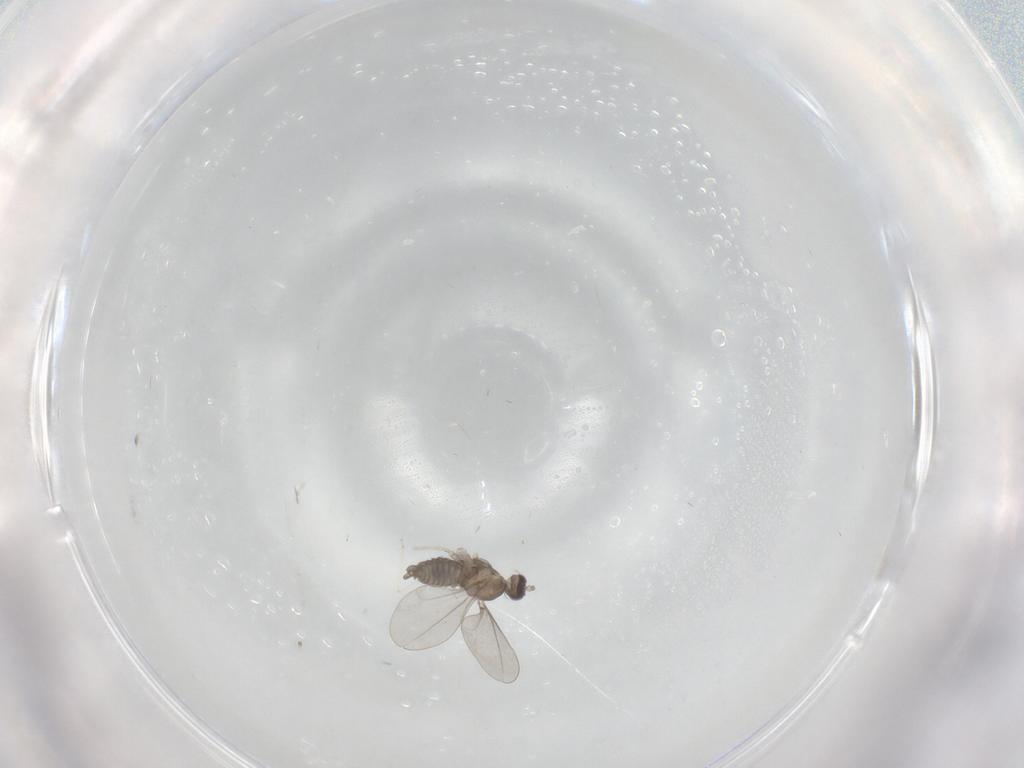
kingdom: Animalia
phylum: Arthropoda
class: Insecta
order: Diptera
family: Cecidomyiidae
